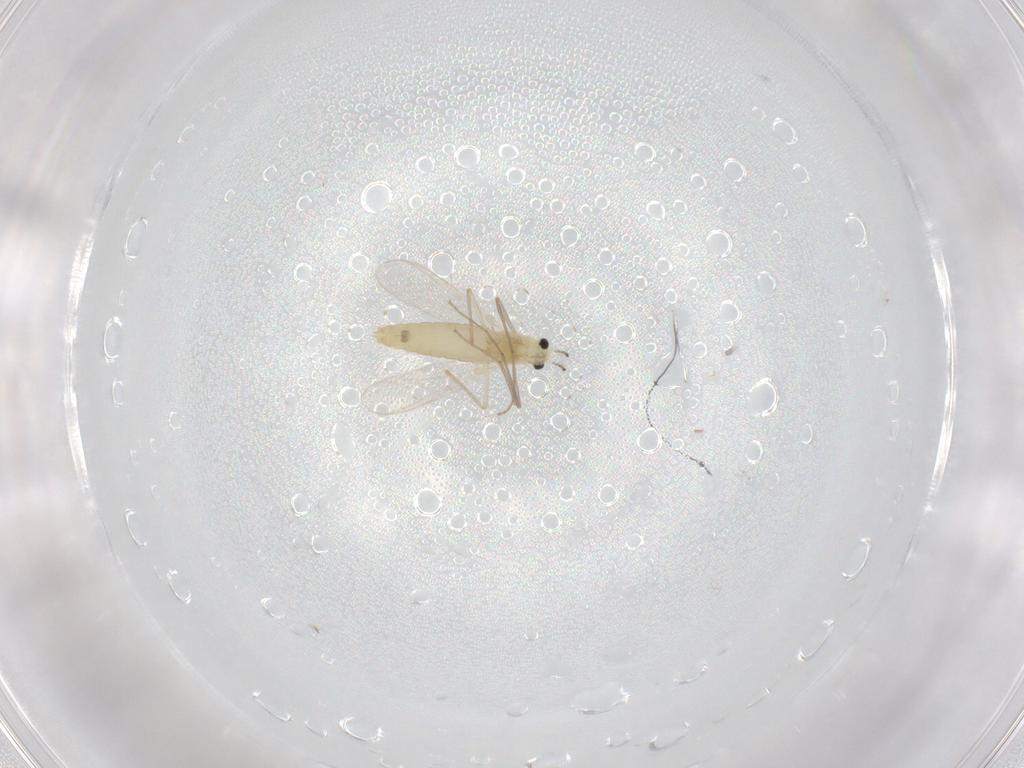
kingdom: Animalia
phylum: Arthropoda
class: Insecta
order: Diptera
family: Chironomidae
